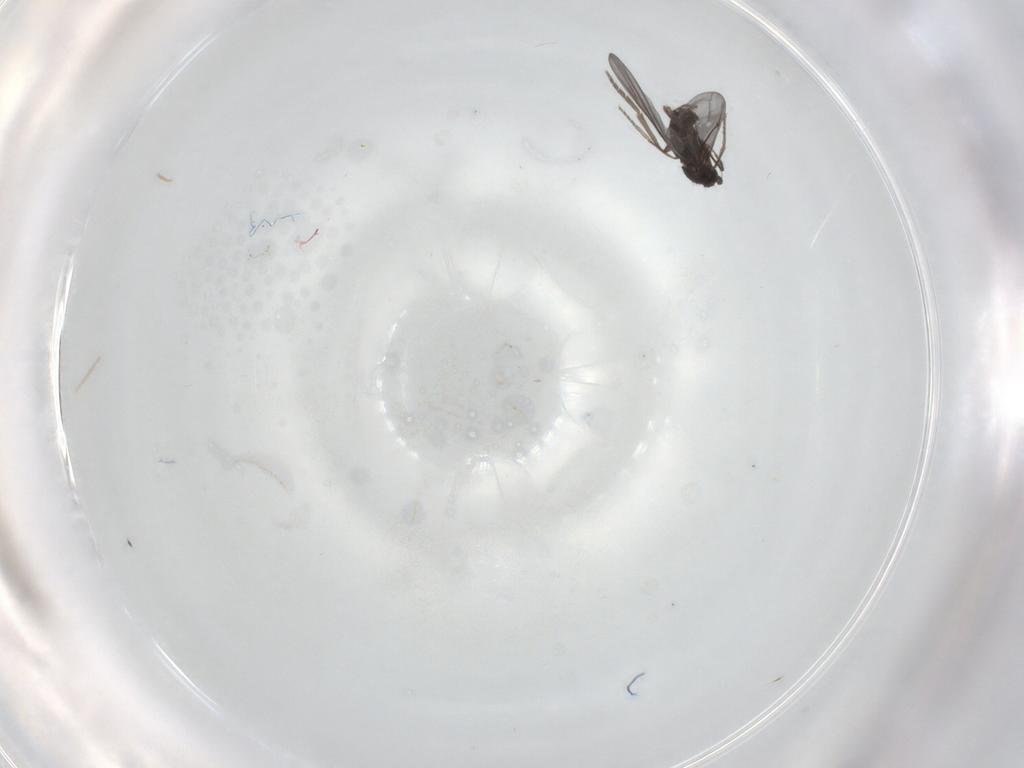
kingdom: Animalia
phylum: Arthropoda
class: Insecta
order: Diptera
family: Phoridae
